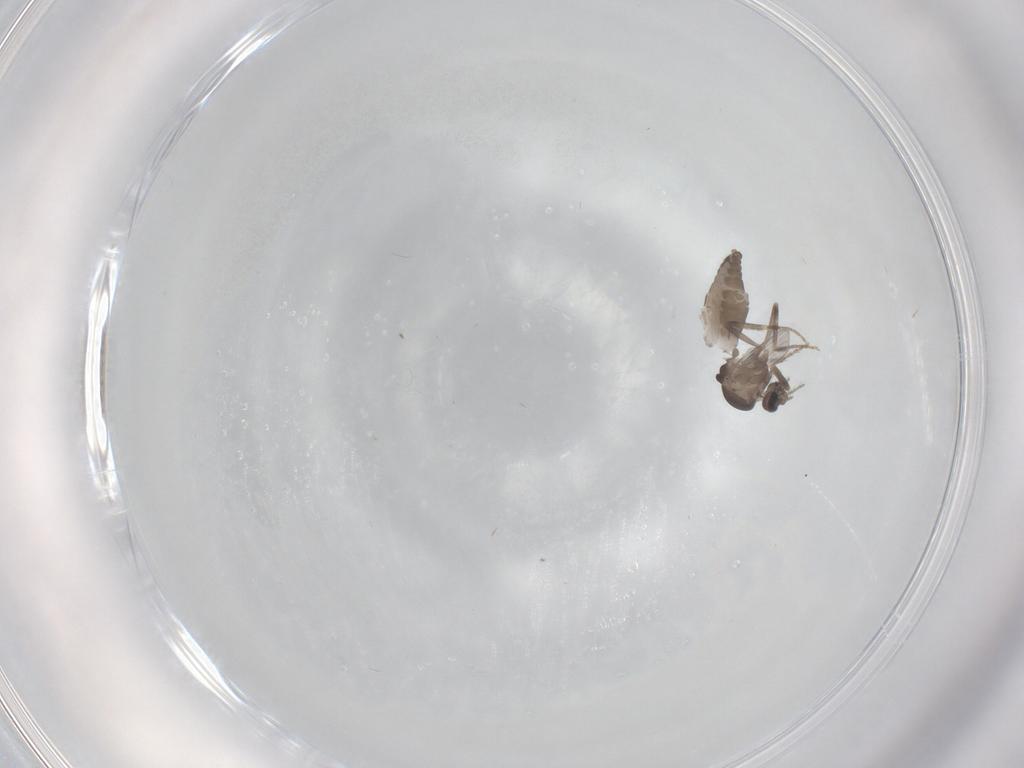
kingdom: Animalia
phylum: Arthropoda
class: Insecta
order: Diptera
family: Ceratopogonidae
